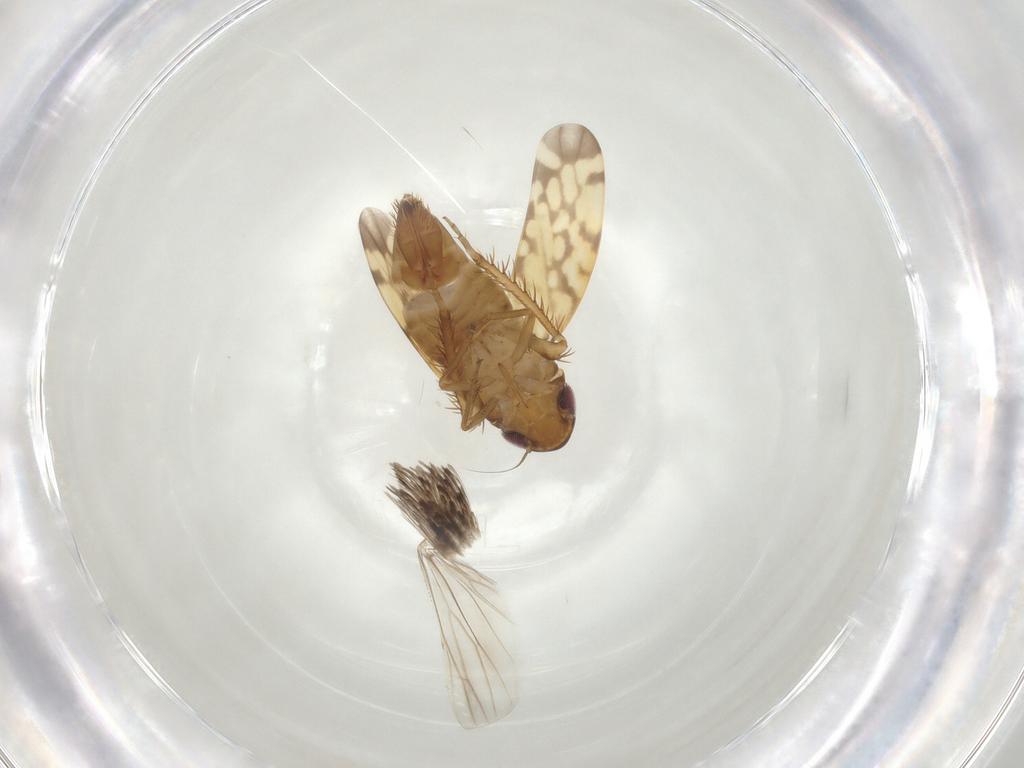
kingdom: Animalia
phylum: Arthropoda
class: Insecta
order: Hemiptera
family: Cicadellidae
